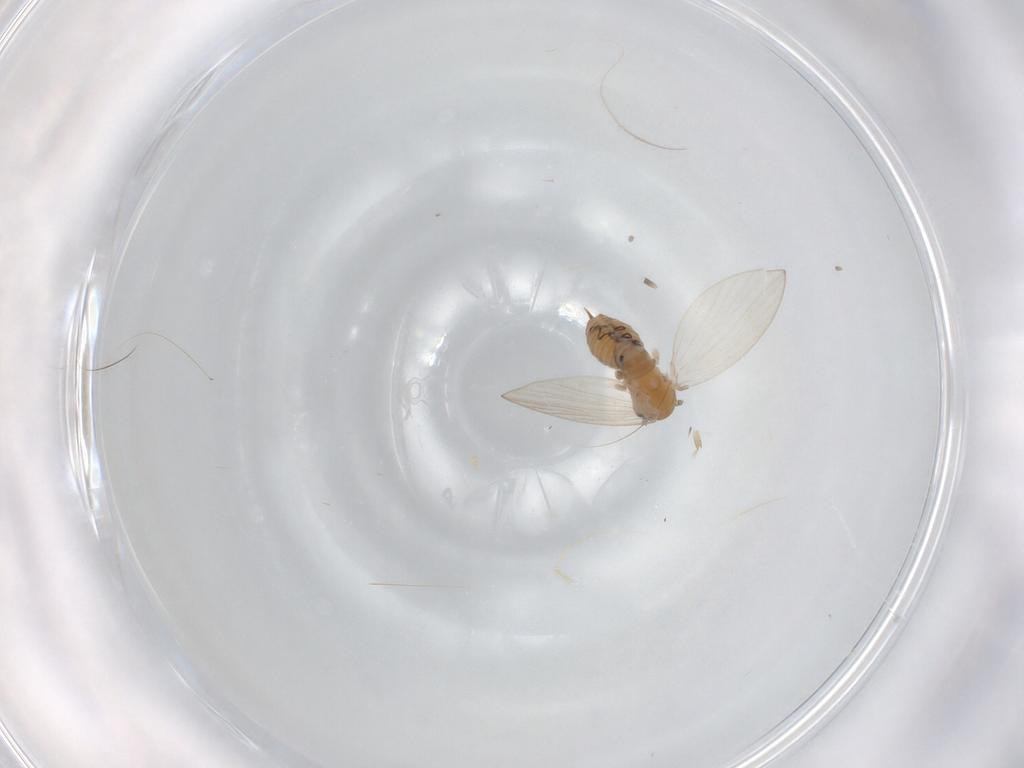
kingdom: Animalia
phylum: Arthropoda
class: Insecta
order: Diptera
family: Psychodidae
